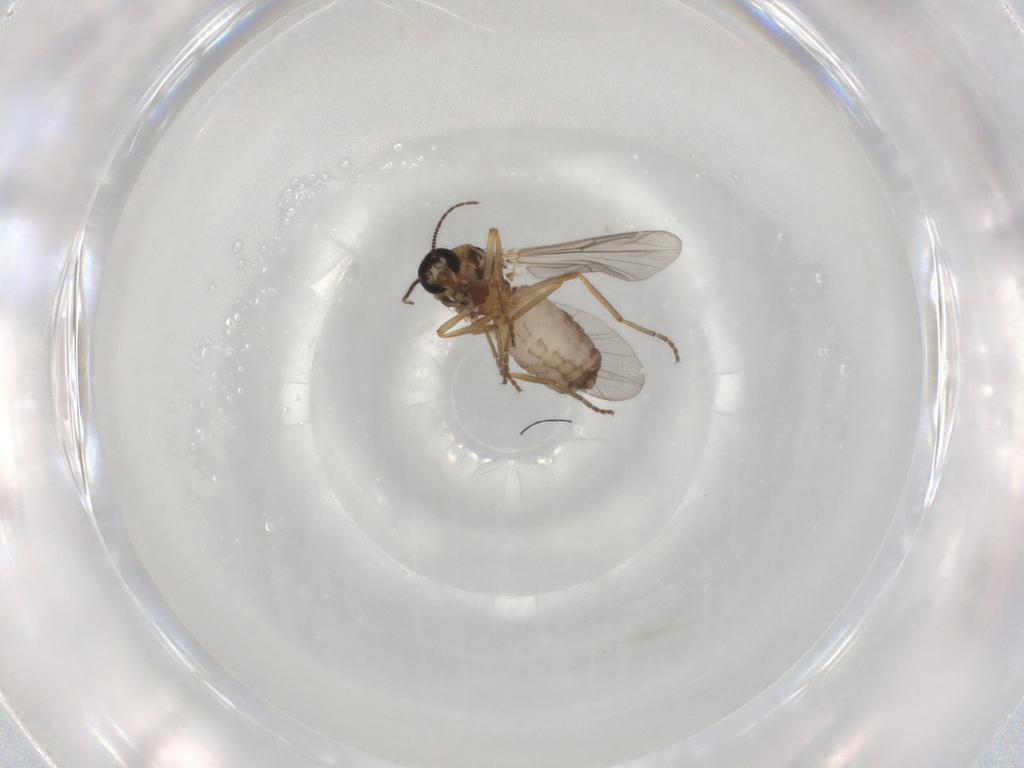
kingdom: Animalia
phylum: Arthropoda
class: Insecta
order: Diptera
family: Ceratopogonidae
